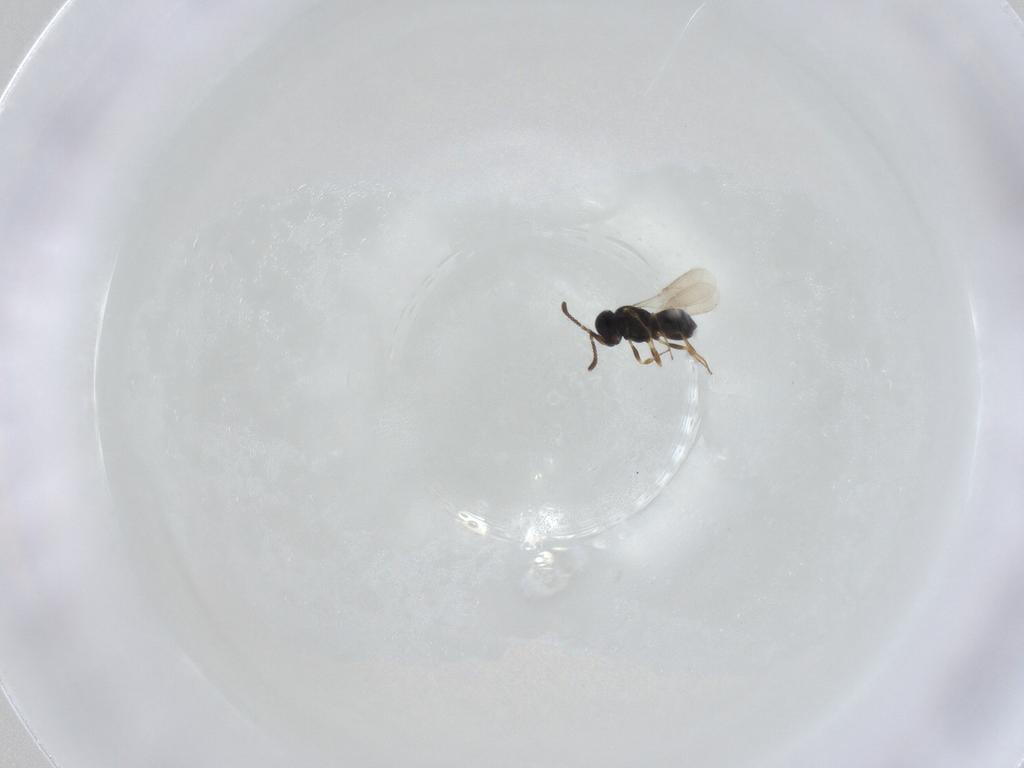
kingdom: Animalia
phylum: Arthropoda
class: Insecta
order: Hymenoptera
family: Scelionidae
